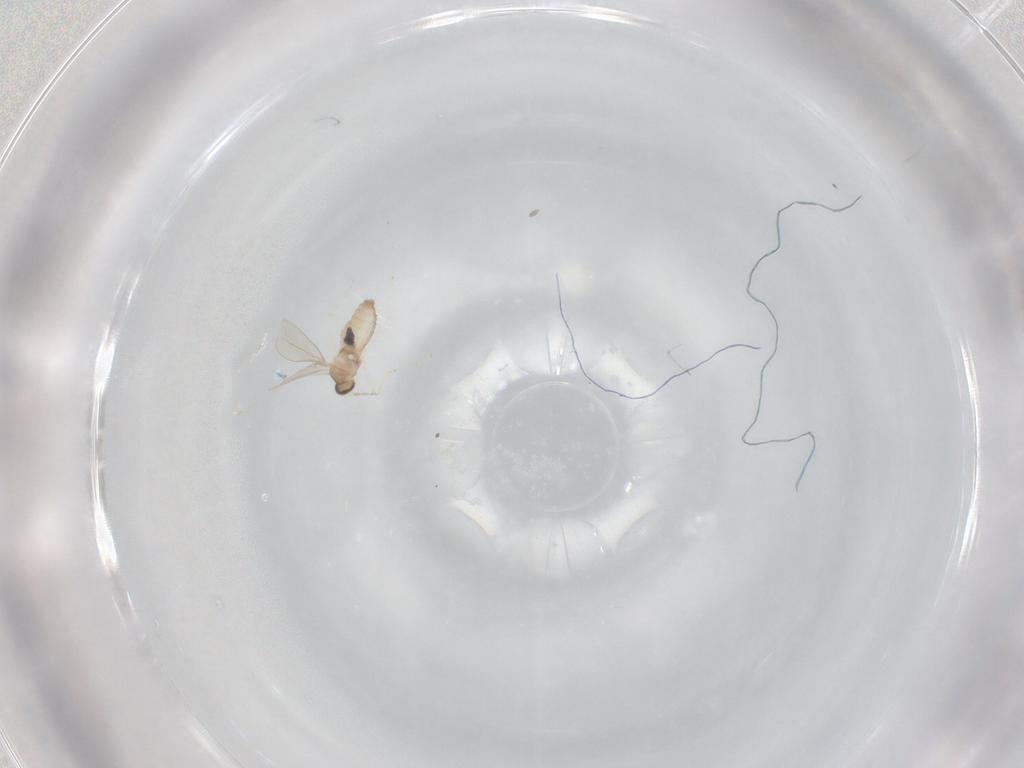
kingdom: Animalia
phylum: Arthropoda
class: Insecta
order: Diptera
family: Cecidomyiidae
